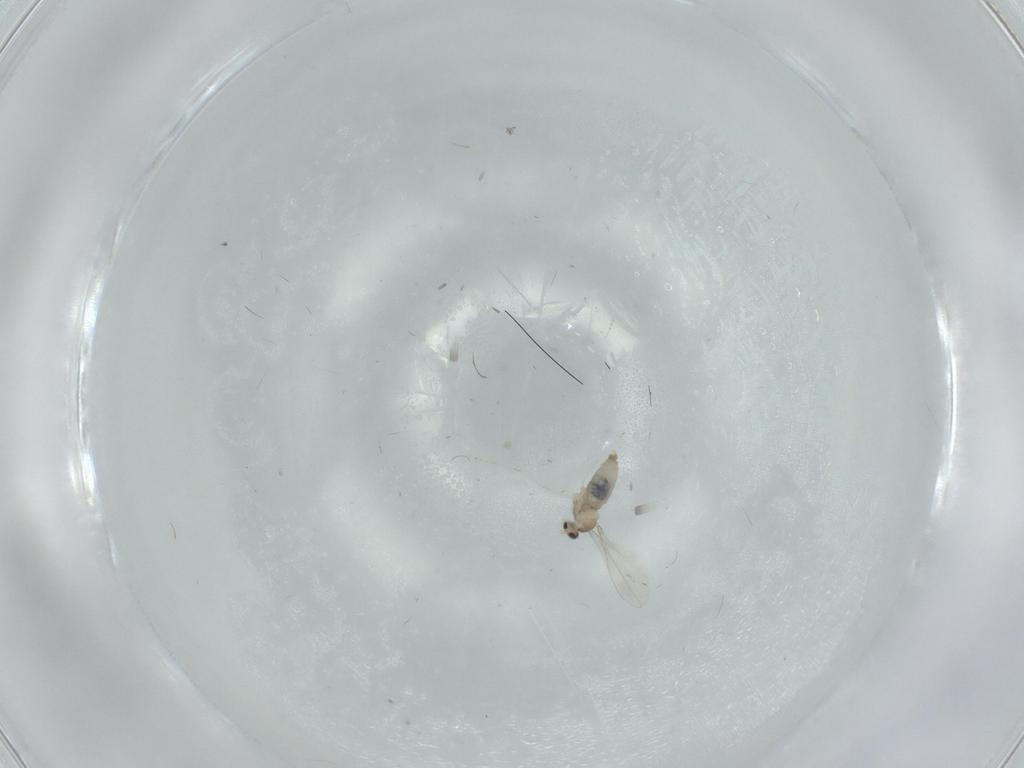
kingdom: Animalia
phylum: Arthropoda
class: Insecta
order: Diptera
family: Cecidomyiidae
